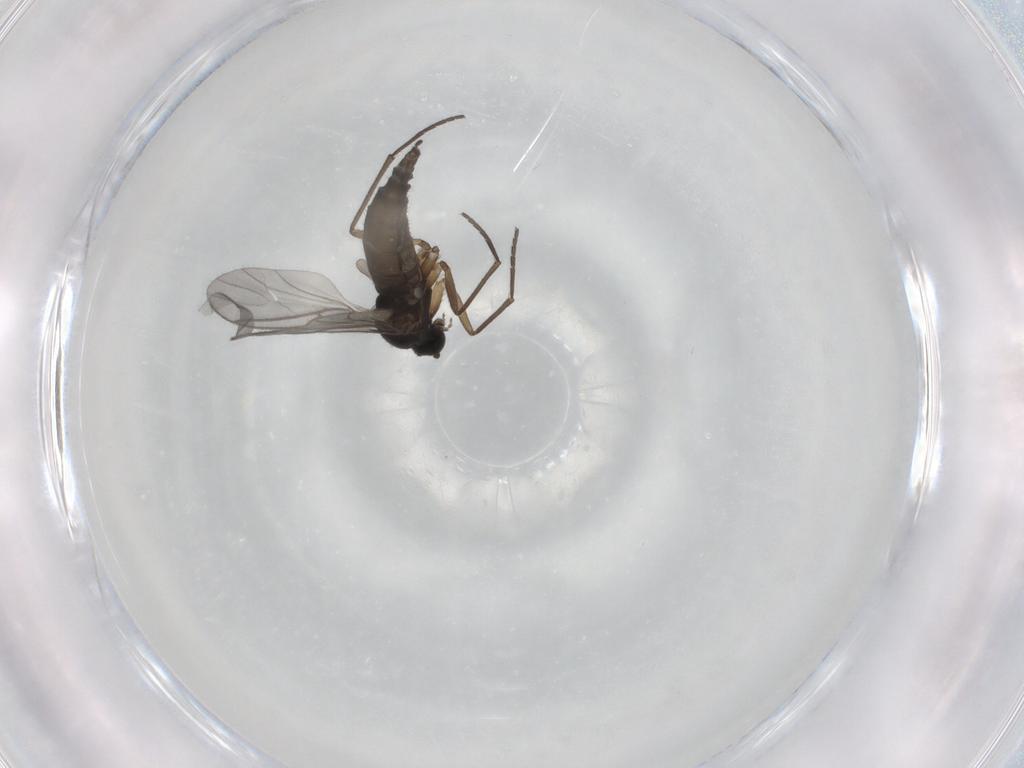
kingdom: Animalia
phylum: Arthropoda
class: Insecta
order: Diptera
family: Sciaridae
